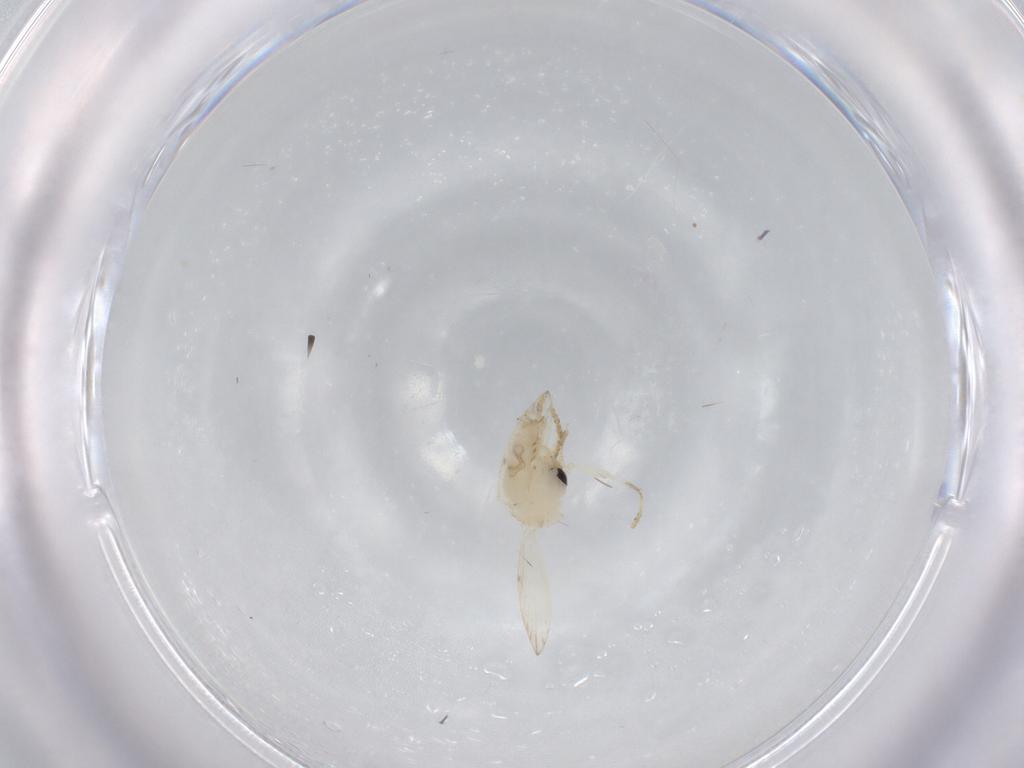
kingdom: Animalia
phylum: Arthropoda
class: Insecta
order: Diptera
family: Psychodidae
